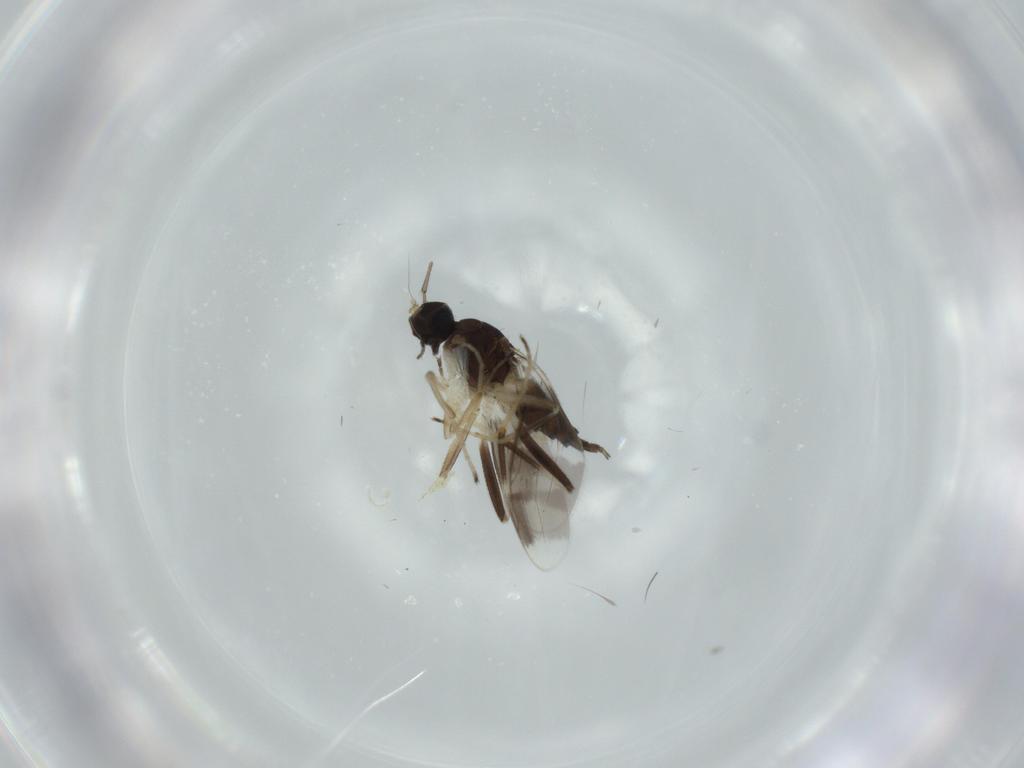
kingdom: Animalia
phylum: Arthropoda
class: Insecta
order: Diptera
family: Hybotidae
